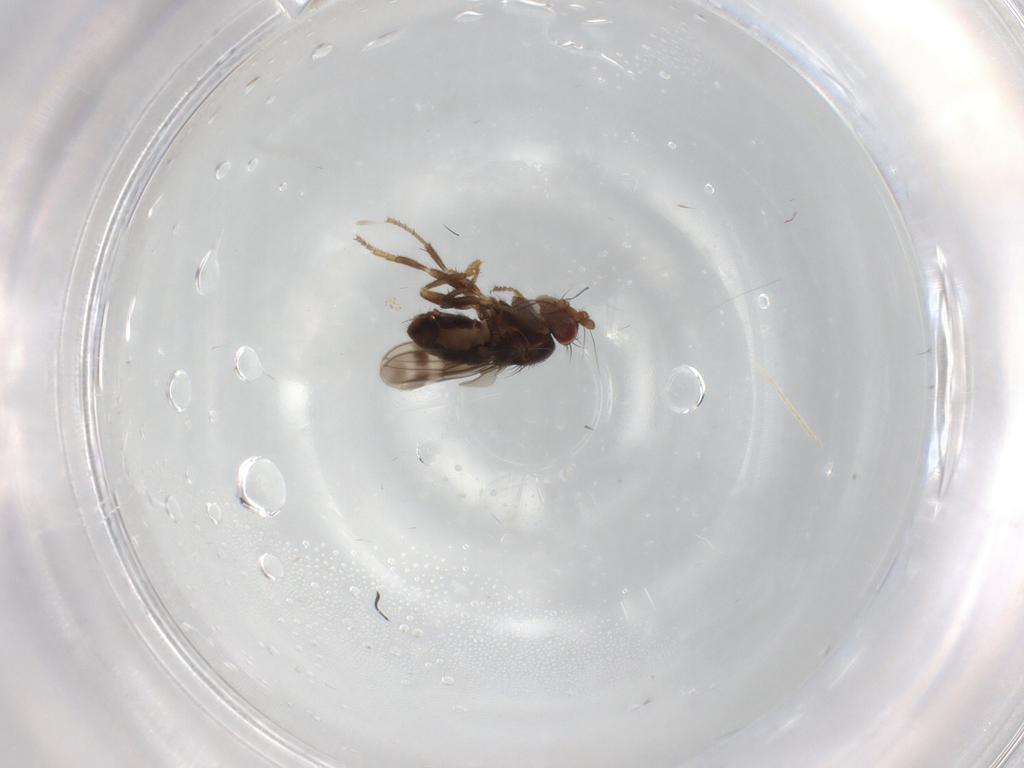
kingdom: Animalia
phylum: Arthropoda
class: Insecta
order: Diptera
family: Sphaeroceridae
